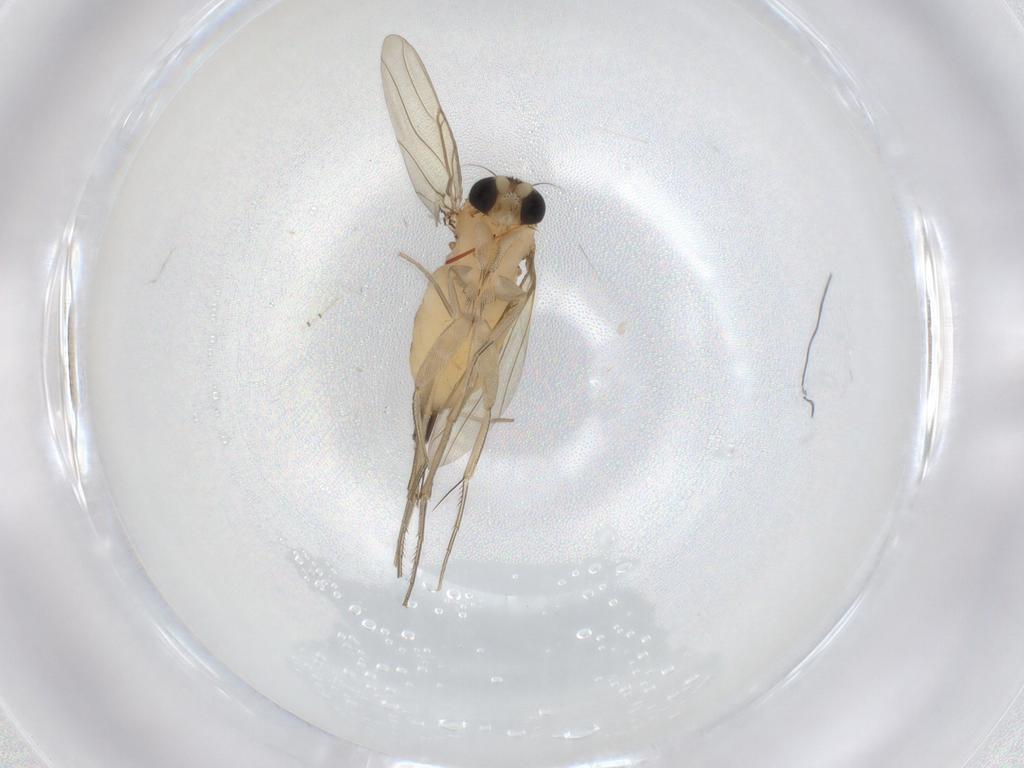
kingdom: Animalia
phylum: Arthropoda
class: Insecta
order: Diptera
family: Phoridae
